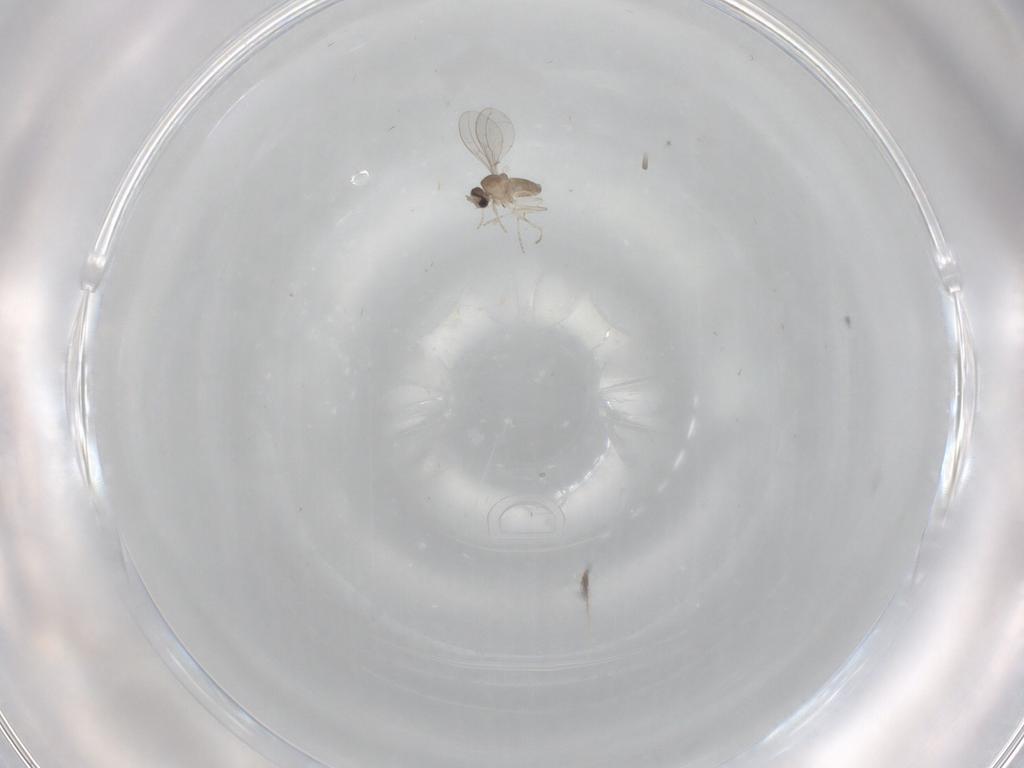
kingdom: Animalia
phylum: Arthropoda
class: Insecta
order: Diptera
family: Cecidomyiidae
